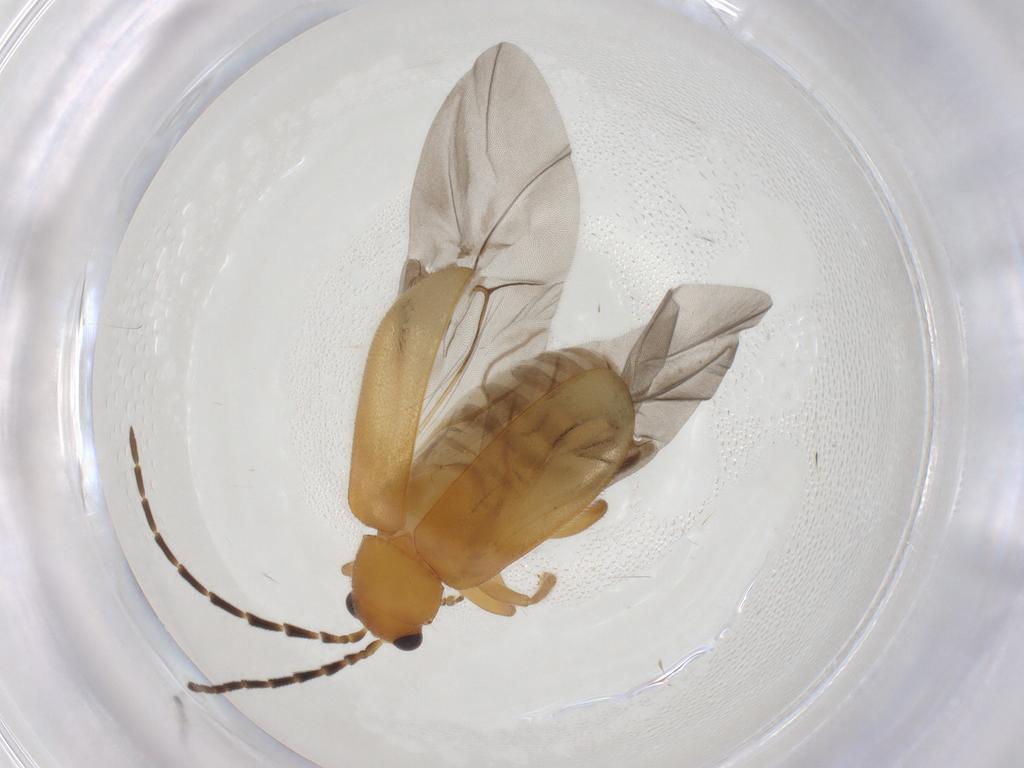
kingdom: Animalia
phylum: Arthropoda
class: Insecta
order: Coleoptera
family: Chrysomelidae
